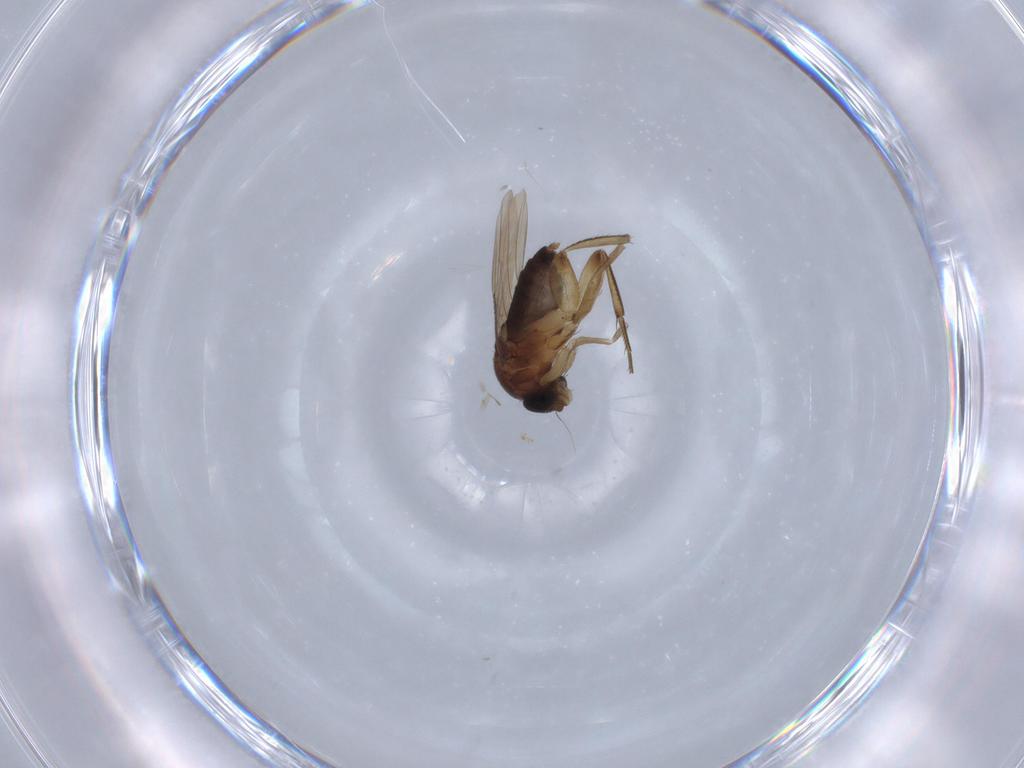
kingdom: Animalia
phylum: Arthropoda
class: Insecta
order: Diptera
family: Phoridae
